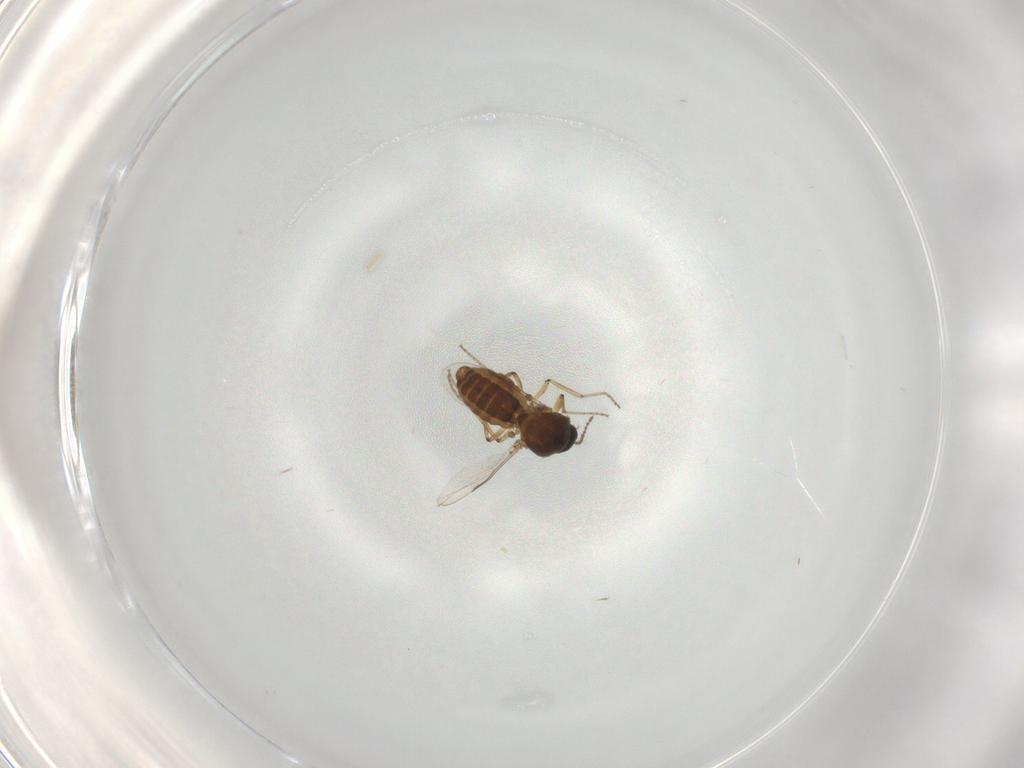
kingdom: Animalia
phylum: Arthropoda
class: Insecta
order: Diptera
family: Ceratopogonidae
